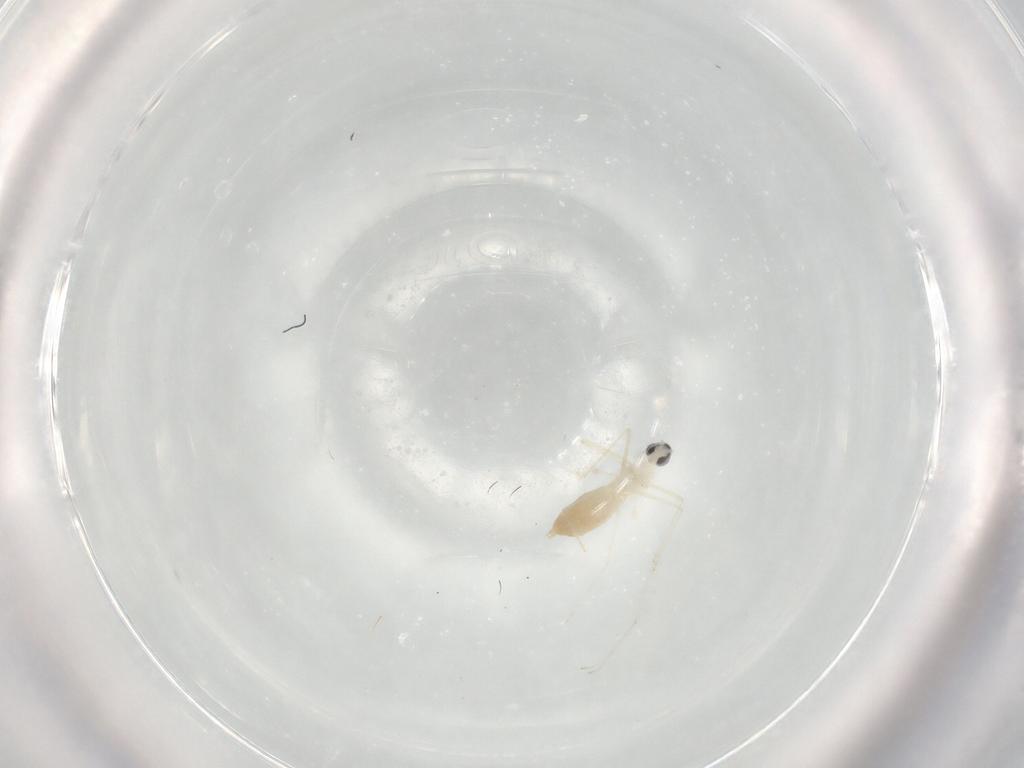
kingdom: Animalia
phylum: Arthropoda
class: Insecta
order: Diptera
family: Cecidomyiidae
